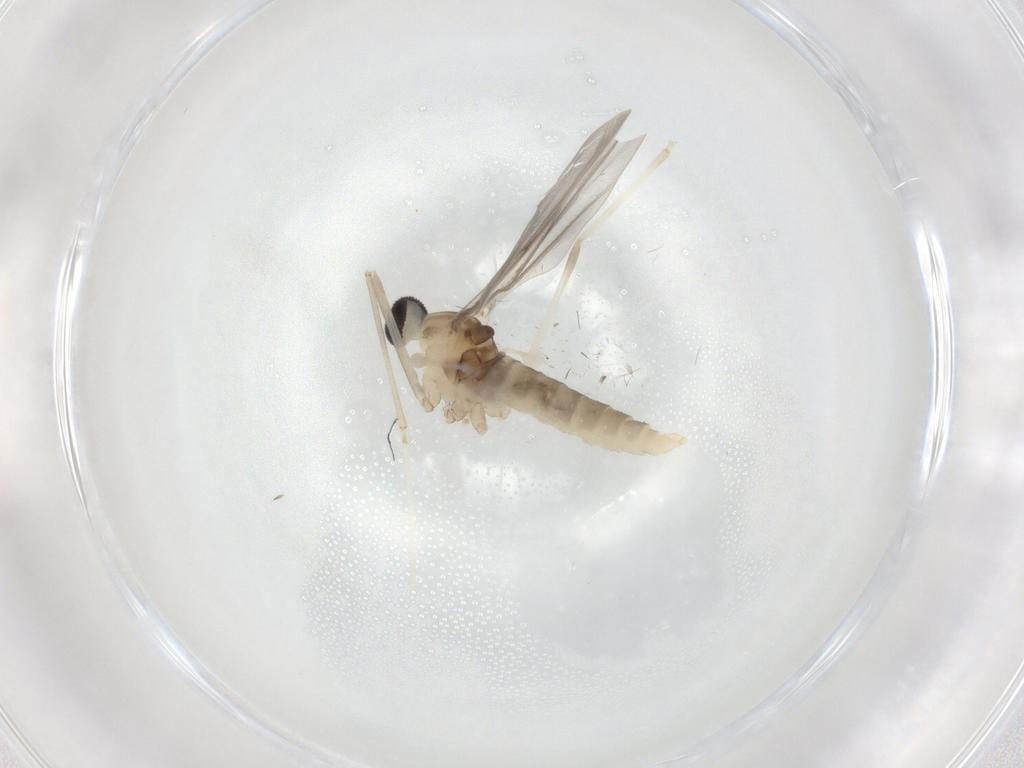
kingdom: Animalia
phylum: Arthropoda
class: Insecta
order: Diptera
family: Cecidomyiidae
